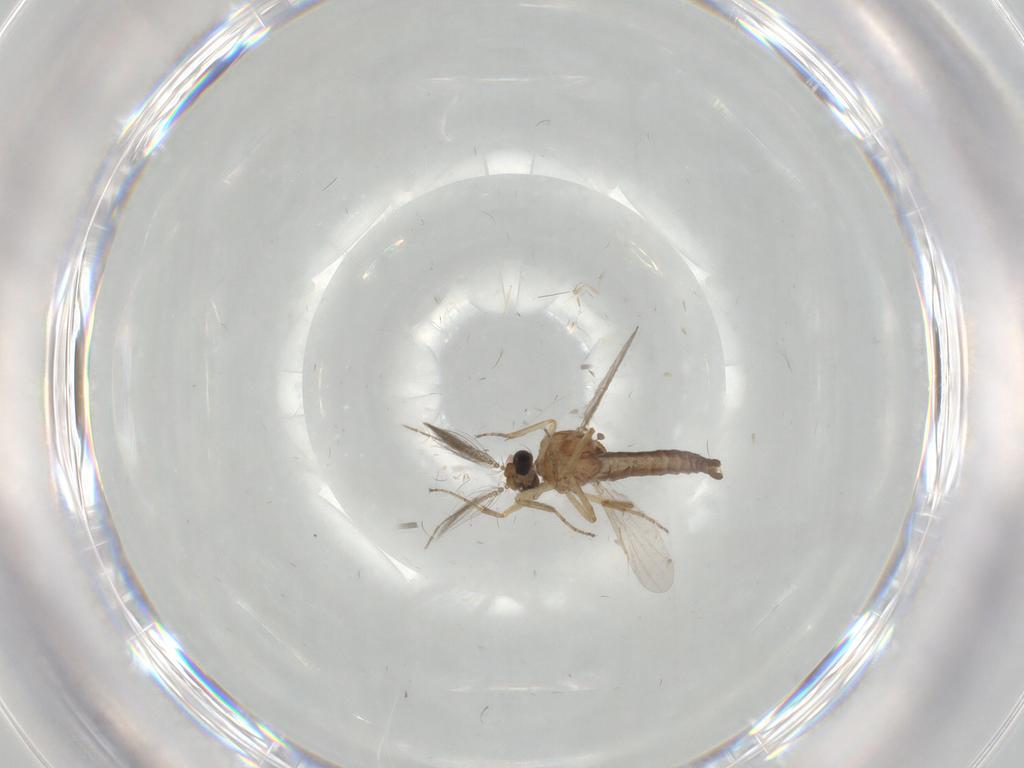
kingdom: Animalia
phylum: Arthropoda
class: Insecta
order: Diptera
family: Ceratopogonidae
